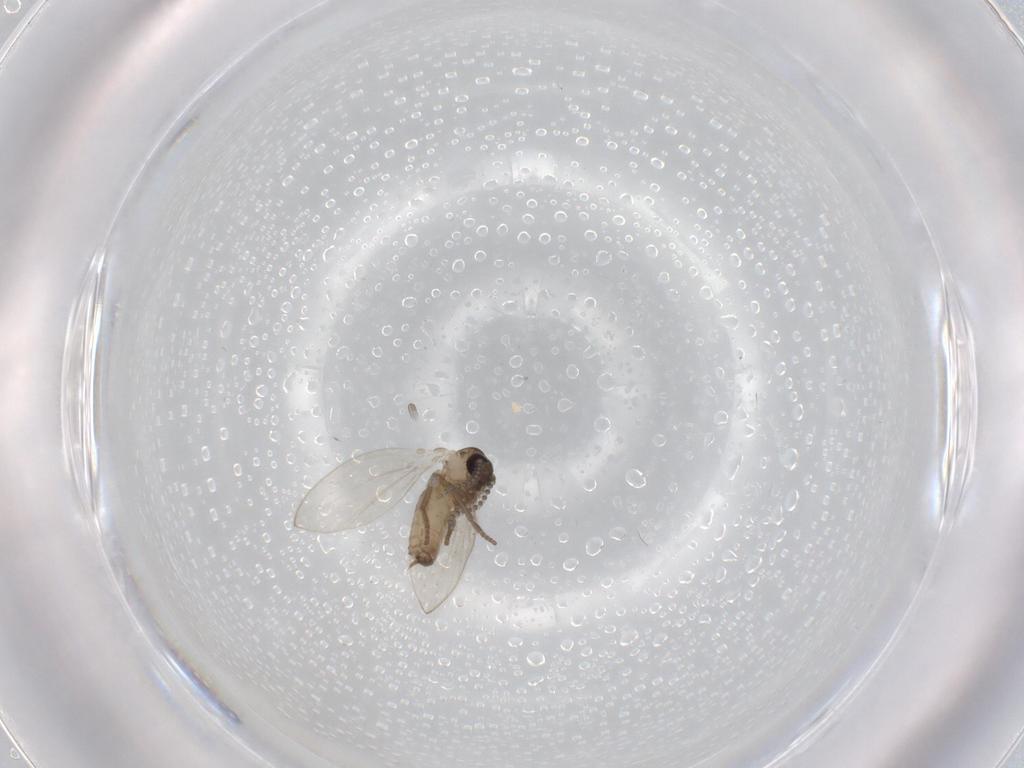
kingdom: Animalia
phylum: Arthropoda
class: Insecta
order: Diptera
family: Psychodidae
